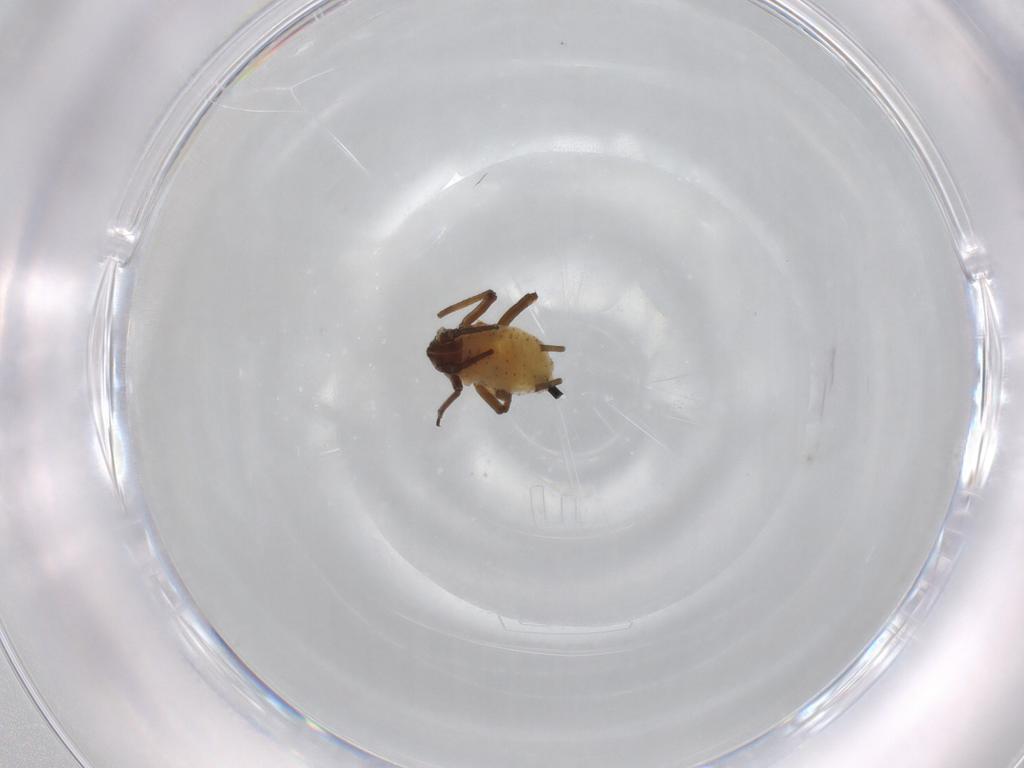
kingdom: Animalia
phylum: Arthropoda
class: Insecta
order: Hemiptera
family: Aphididae
